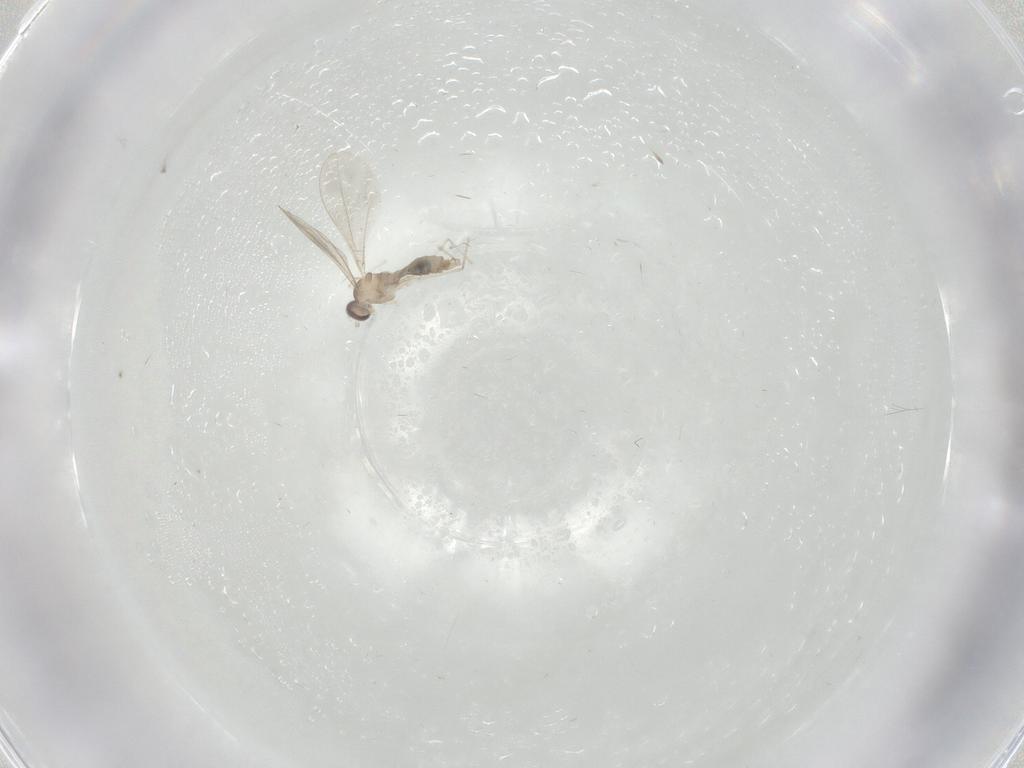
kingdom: Animalia
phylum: Arthropoda
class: Insecta
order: Diptera
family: Cecidomyiidae
